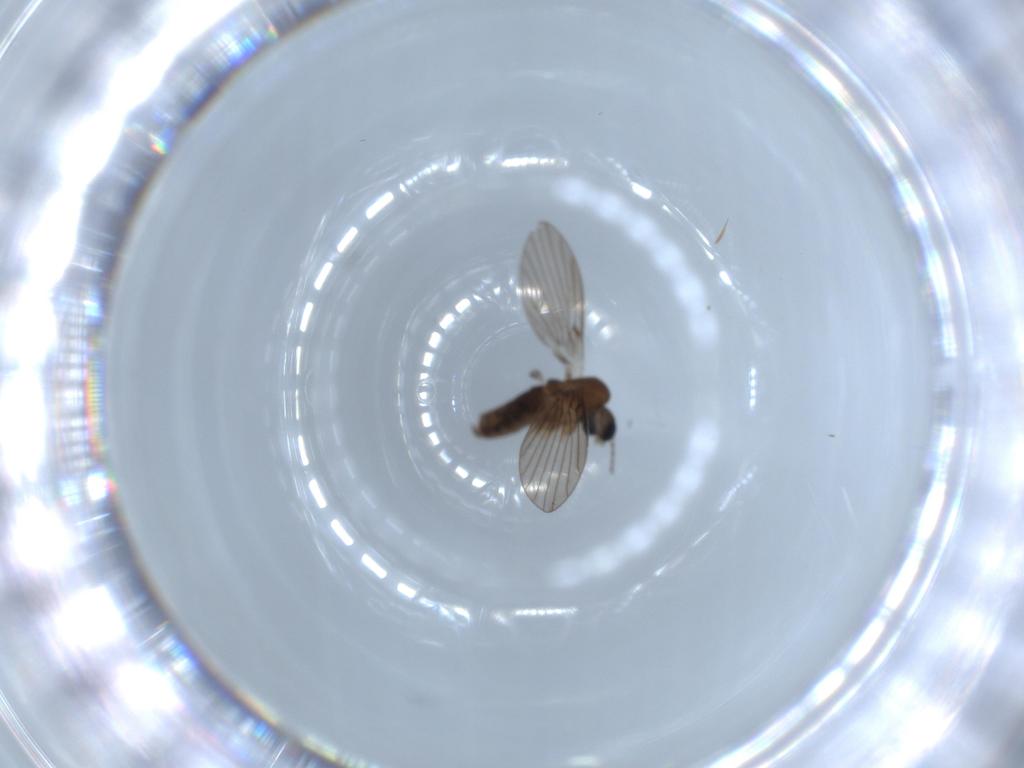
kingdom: Animalia
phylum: Arthropoda
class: Insecta
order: Diptera
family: Psychodidae
